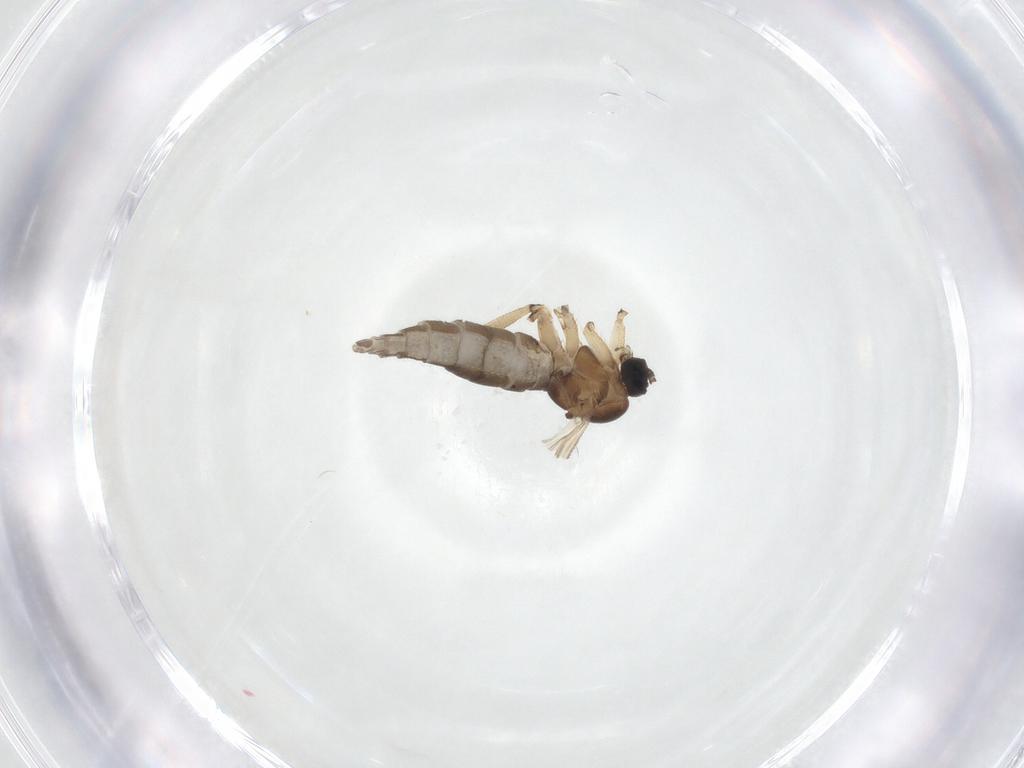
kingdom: Animalia
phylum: Arthropoda
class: Insecta
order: Diptera
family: Sciaridae
